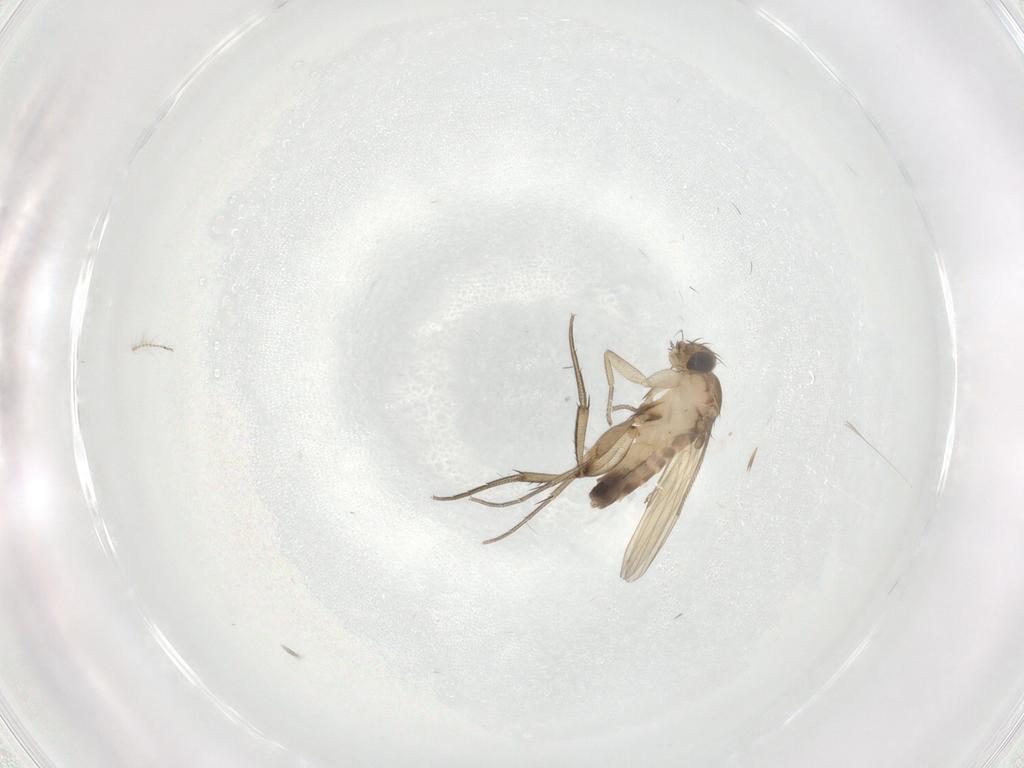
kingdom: Animalia
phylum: Arthropoda
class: Insecta
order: Diptera
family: Phoridae
